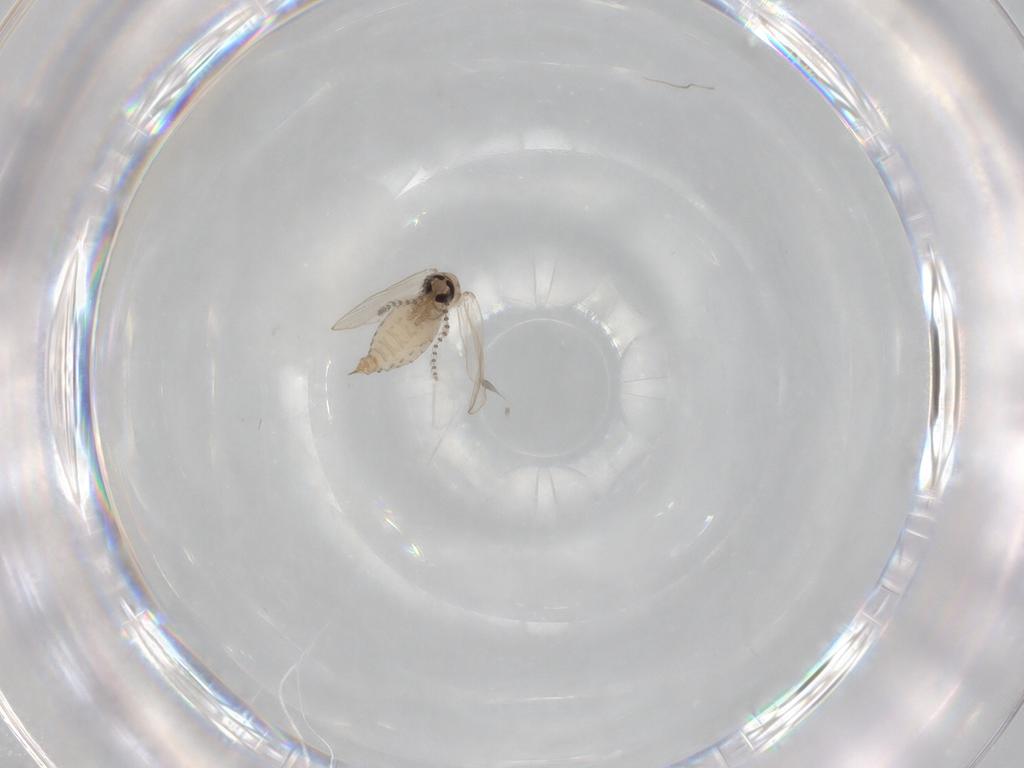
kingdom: Animalia
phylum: Arthropoda
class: Insecta
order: Diptera
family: Psychodidae
